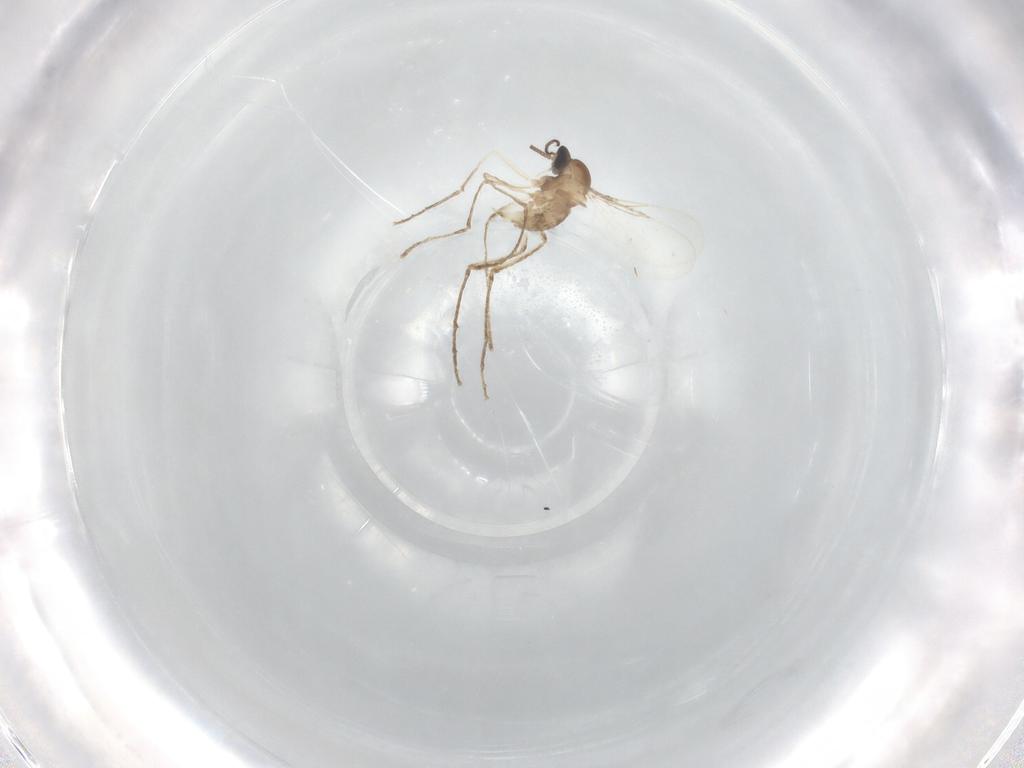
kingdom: Animalia
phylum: Arthropoda
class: Insecta
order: Diptera
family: Cecidomyiidae
